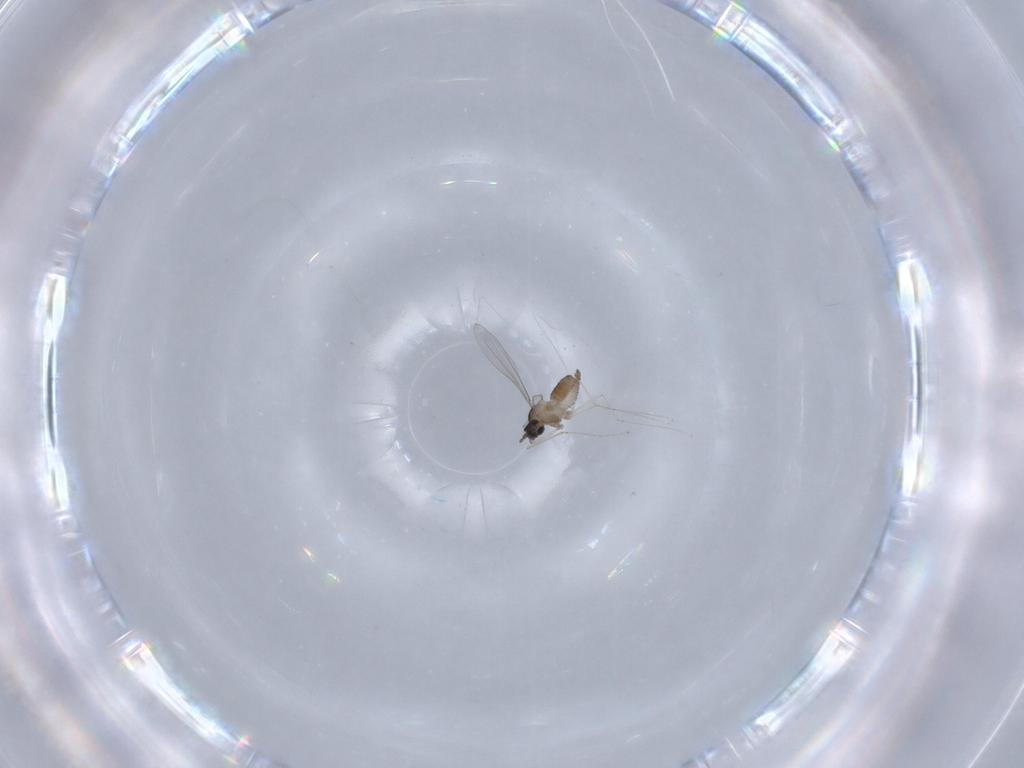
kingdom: Animalia
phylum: Arthropoda
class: Insecta
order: Diptera
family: Cecidomyiidae
